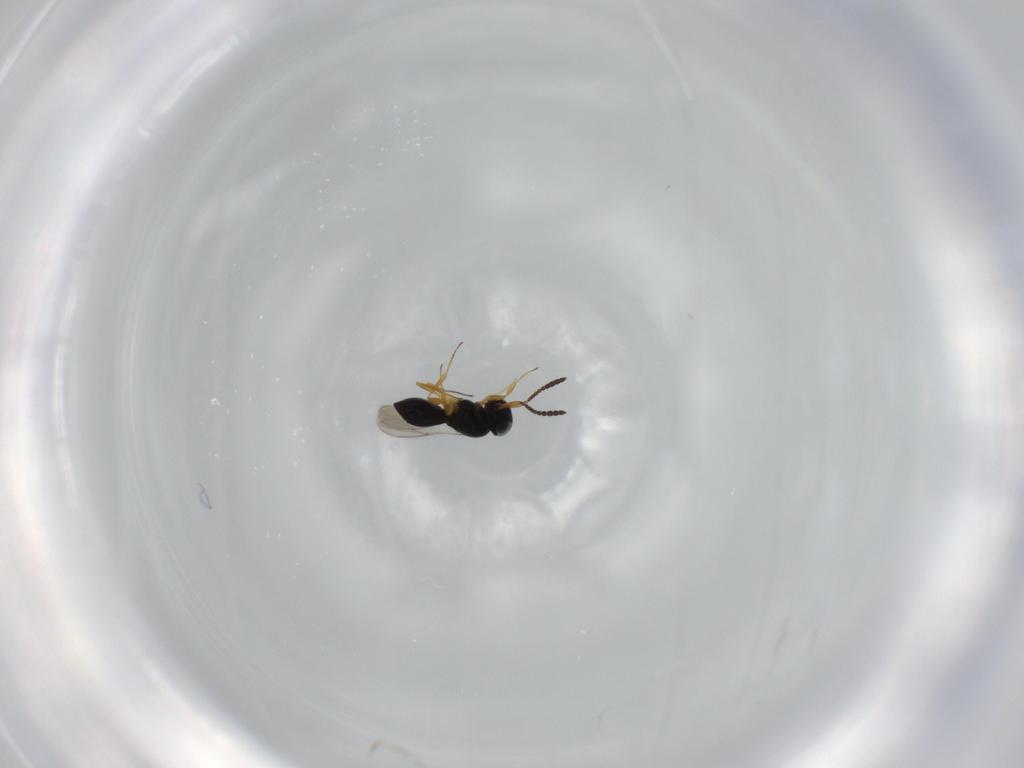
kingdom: Animalia
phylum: Arthropoda
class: Insecta
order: Hymenoptera
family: Scelionidae
